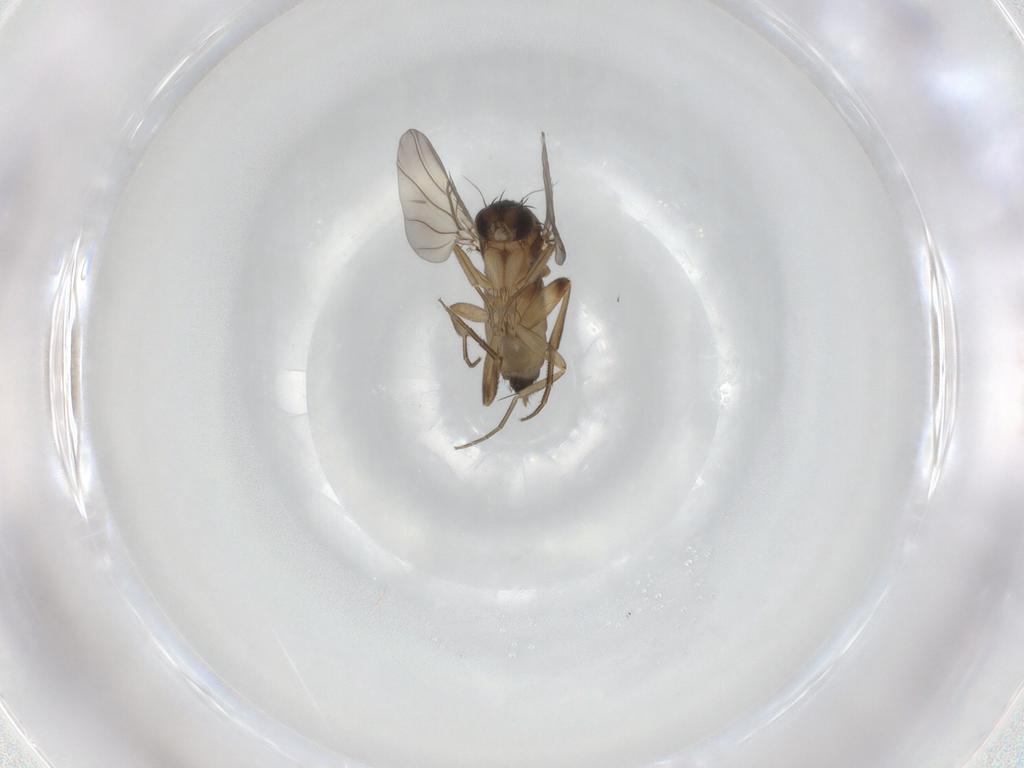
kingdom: Animalia
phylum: Arthropoda
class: Insecta
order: Diptera
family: Phoridae
